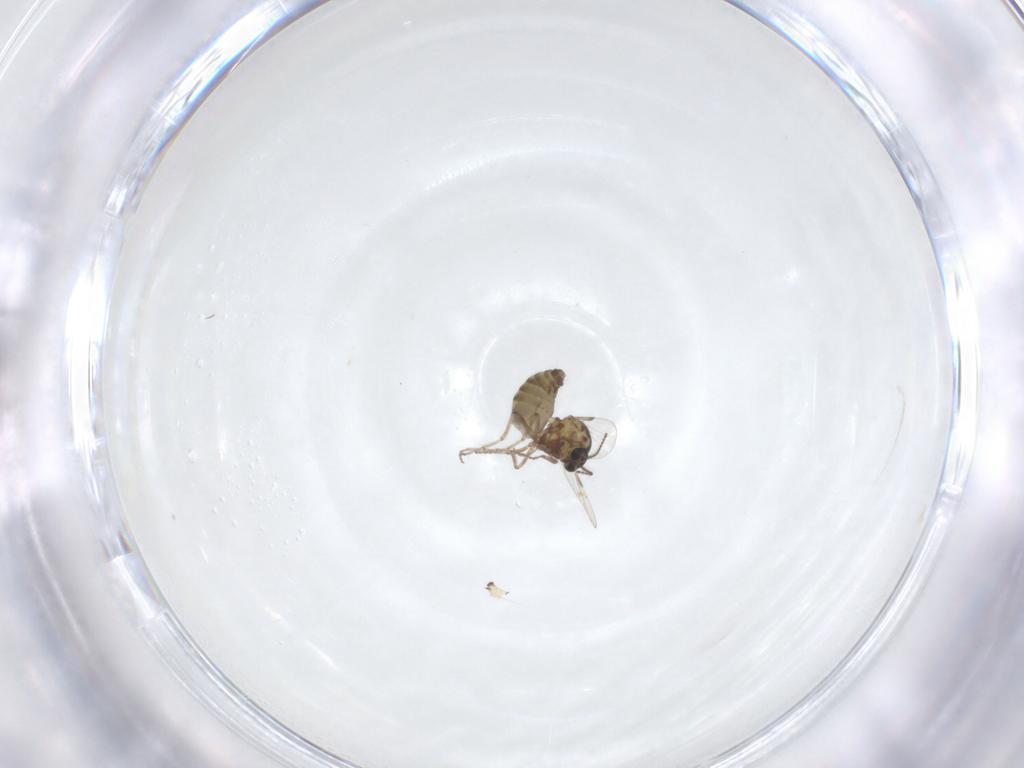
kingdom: Animalia
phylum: Arthropoda
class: Insecta
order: Diptera
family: Ceratopogonidae
